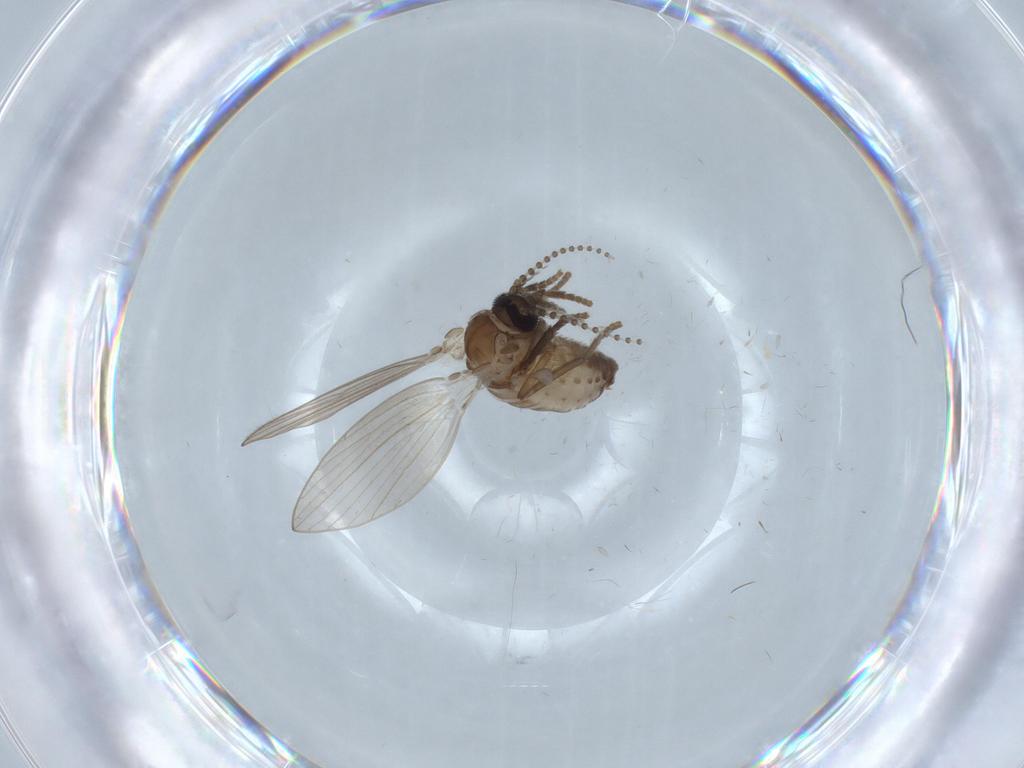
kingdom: Animalia
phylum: Arthropoda
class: Insecta
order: Diptera
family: Psychodidae
